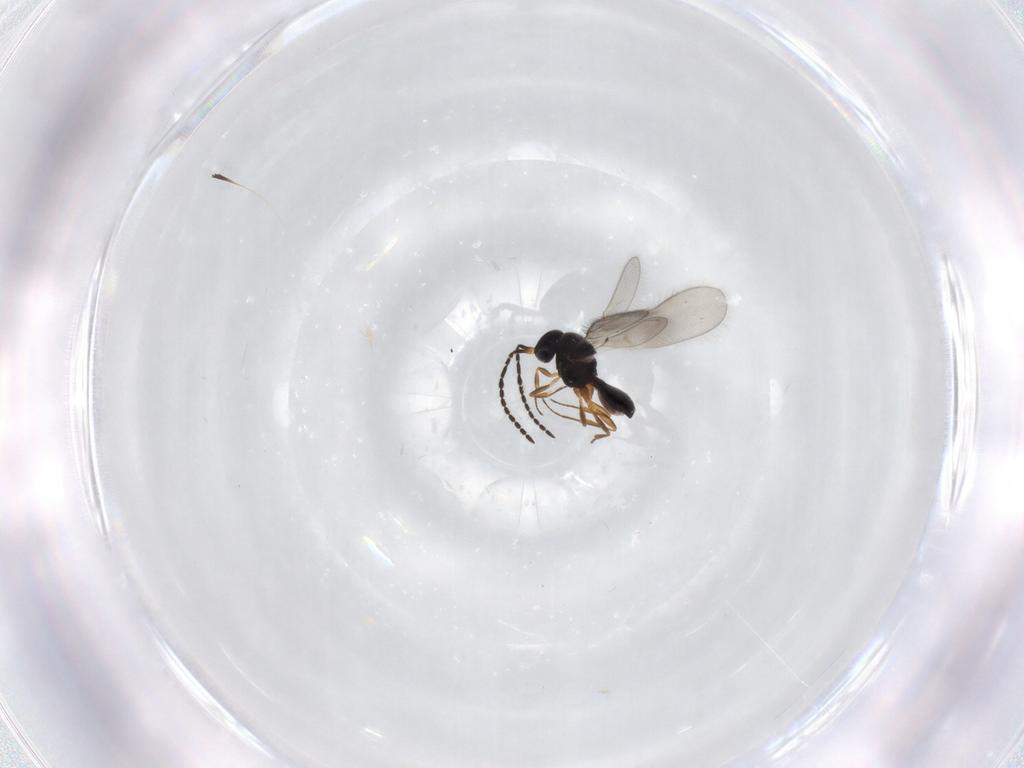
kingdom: Animalia
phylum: Arthropoda
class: Insecta
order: Hymenoptera
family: Scelionidae
